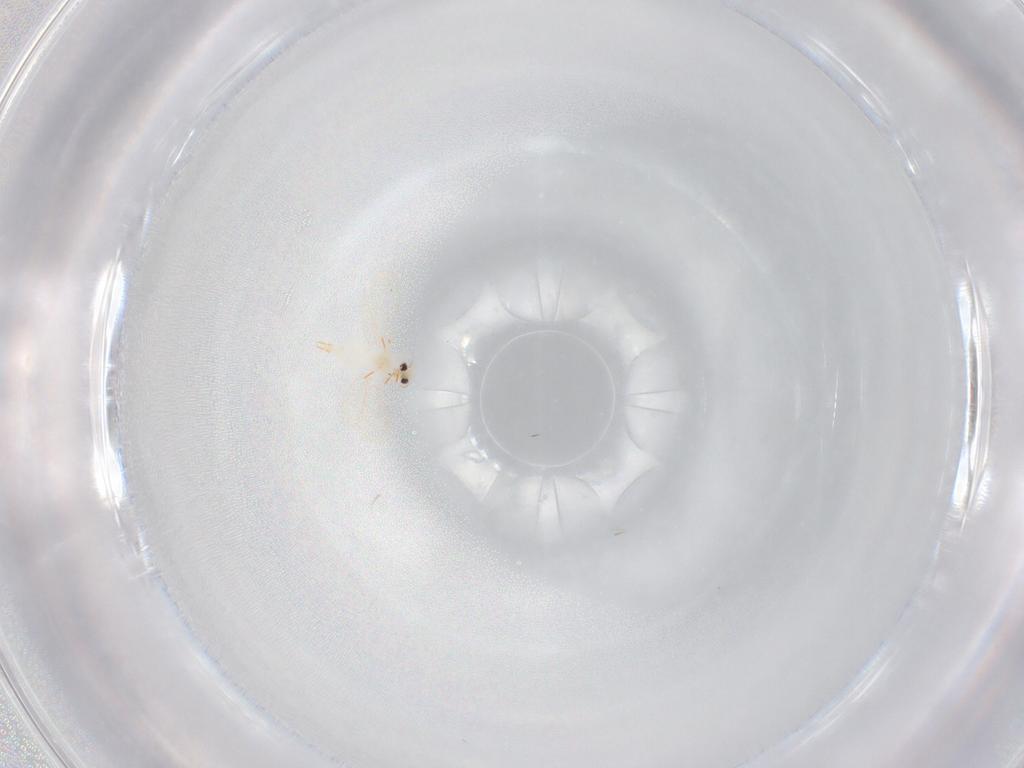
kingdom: Animalia
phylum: Arthropoda
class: Insecta
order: Hemiptera
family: Aleyrodidae
